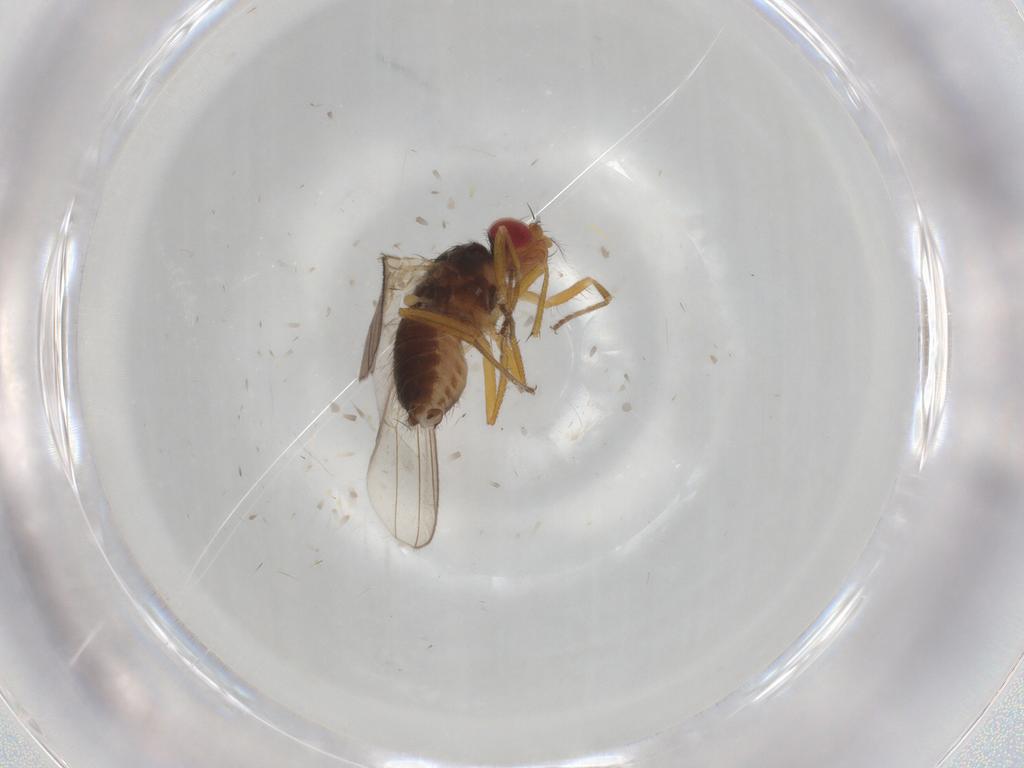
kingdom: Animalia
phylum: Arthropoda
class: Insecta
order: Diptera
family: Drosophilidae
